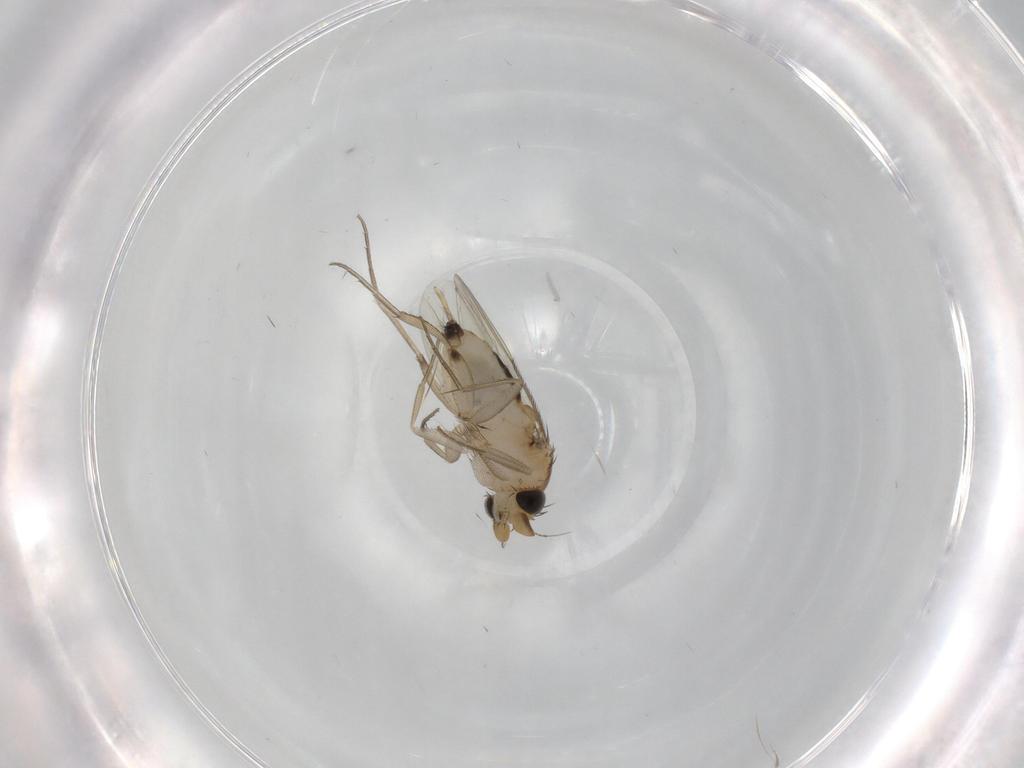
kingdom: Animalia
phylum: Arthropoda
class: Insecta
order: Diptera
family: Phoridae
